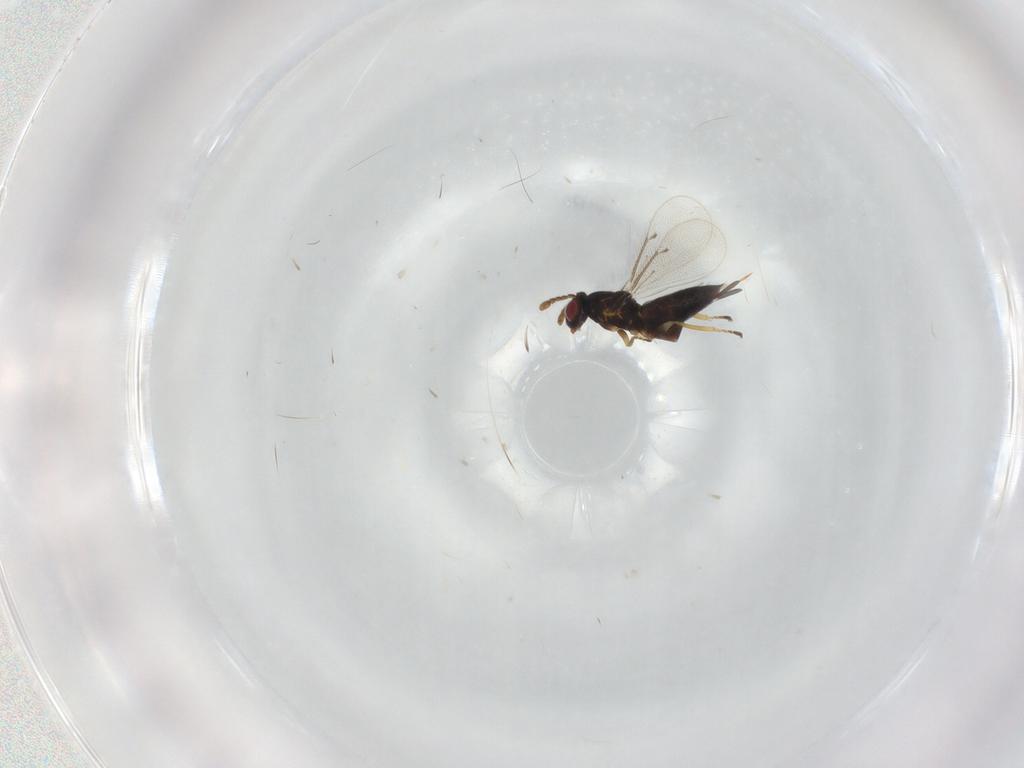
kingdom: Animalia
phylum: Arthropoda
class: Insecta
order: Hymenoptera
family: Eulophidae
